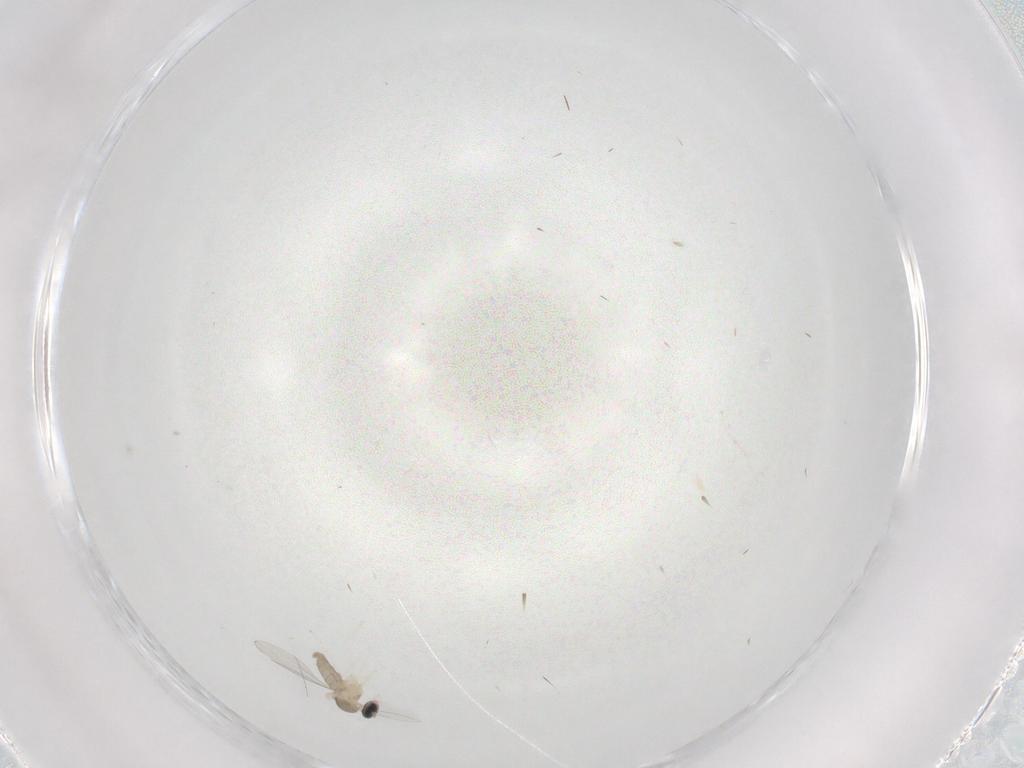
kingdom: Animalia
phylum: Arthropoda
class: Insecta
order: Diptera
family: Cecidomyiidae
